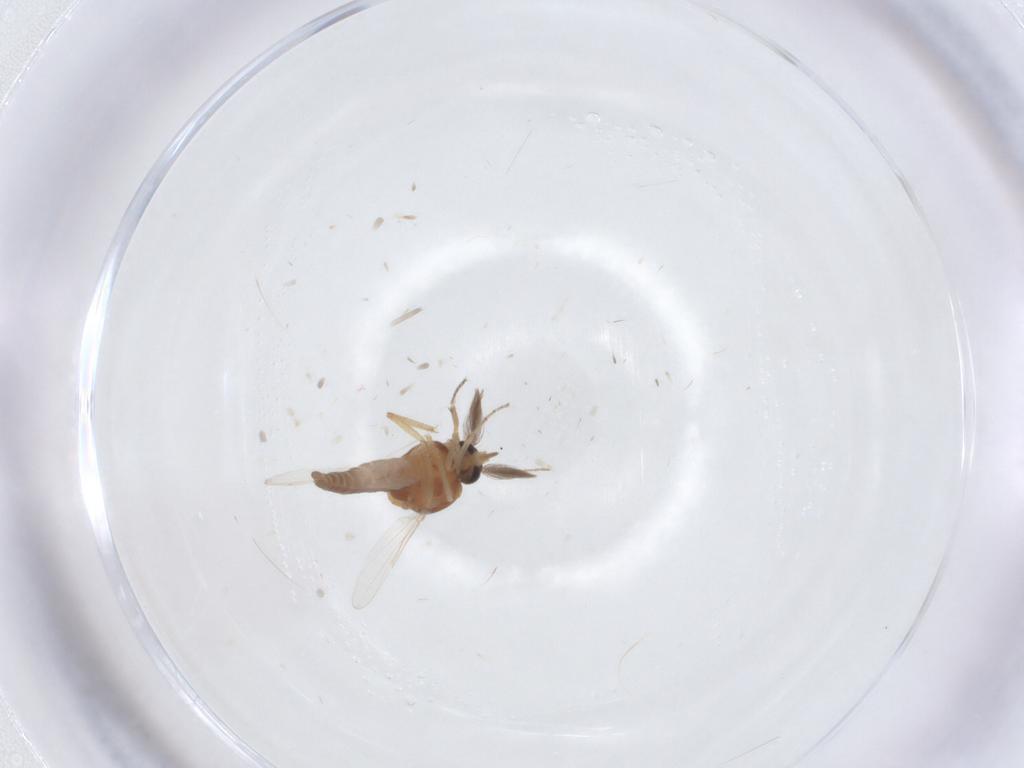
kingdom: Animalia
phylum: Arthropoda
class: Insecta
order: Diptera
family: Ceratopogonidae
